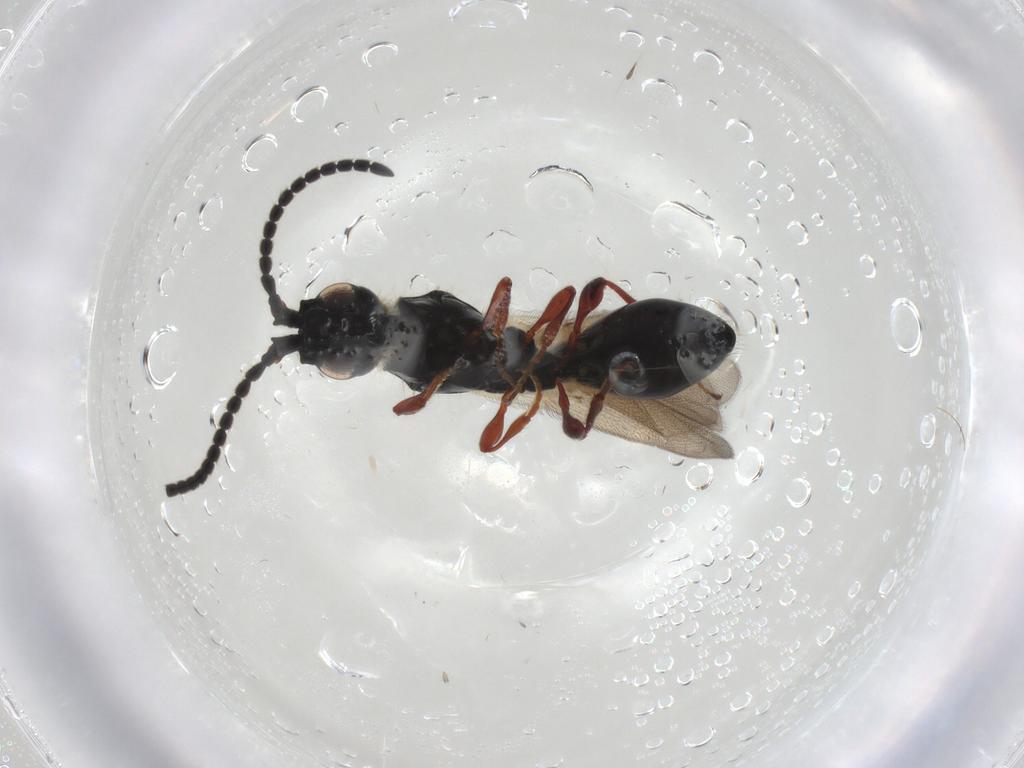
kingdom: Animalia
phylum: Arthropoda
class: Insecta
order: Hymenoptera
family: Diapriidae
